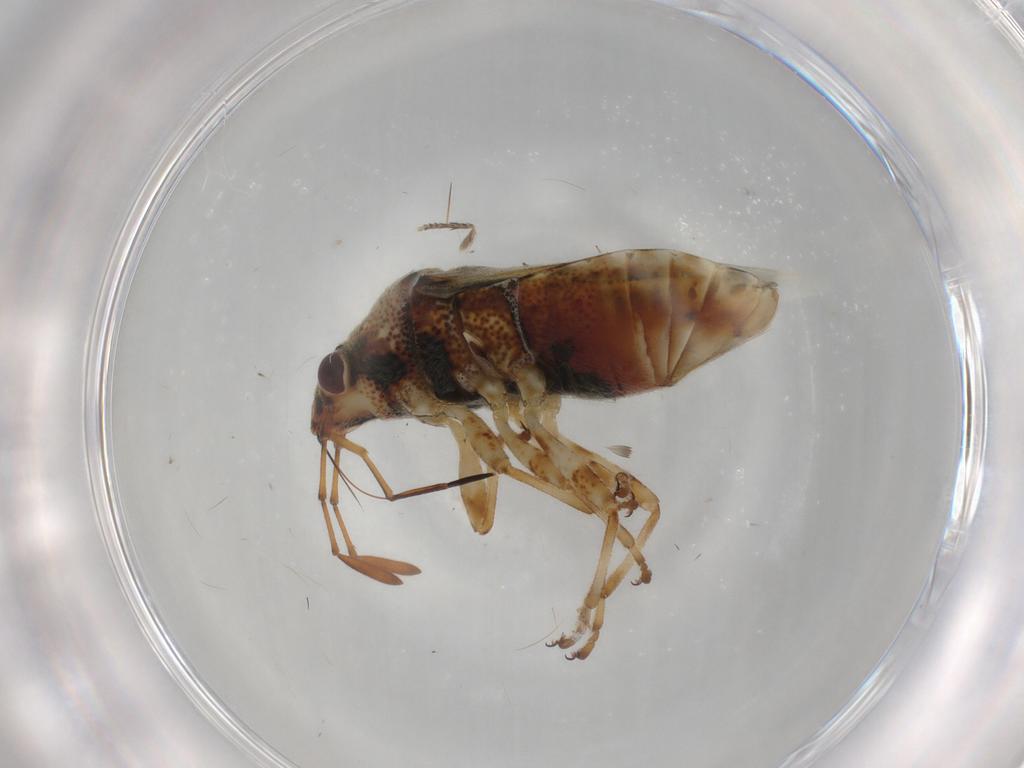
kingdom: Animalia
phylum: Arthropoda
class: Insecta
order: Hemiptera
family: Lygaeidae
